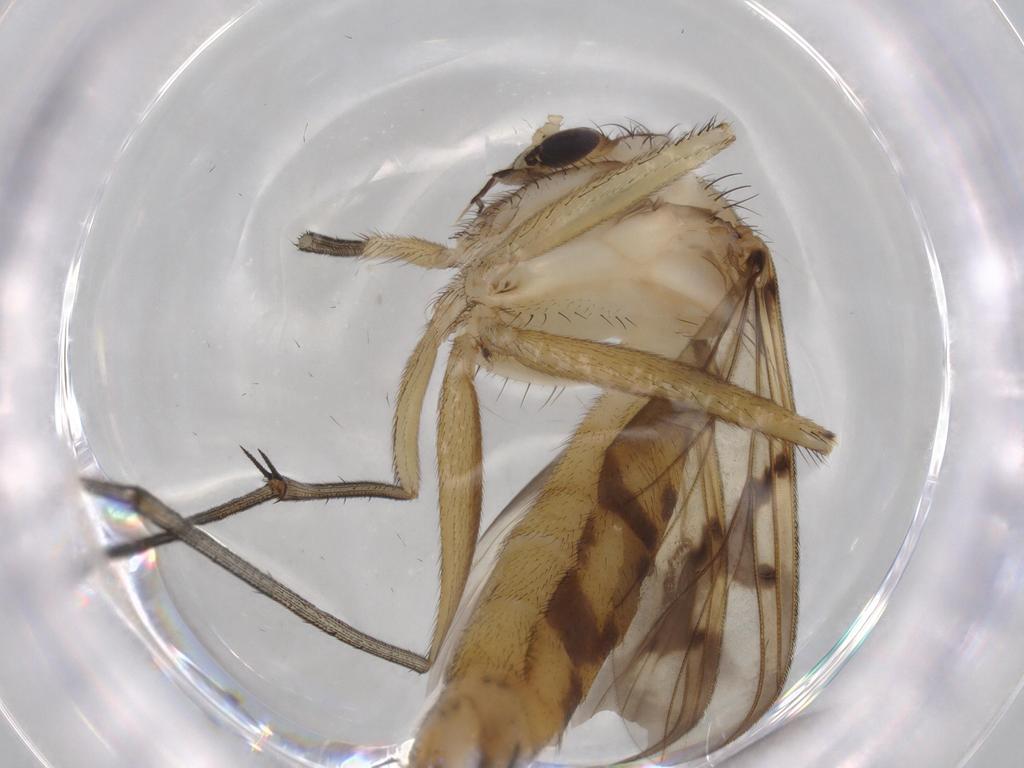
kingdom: Animalia
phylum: Arthropoda
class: Insecta
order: Diptera
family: Mycetophilidae
